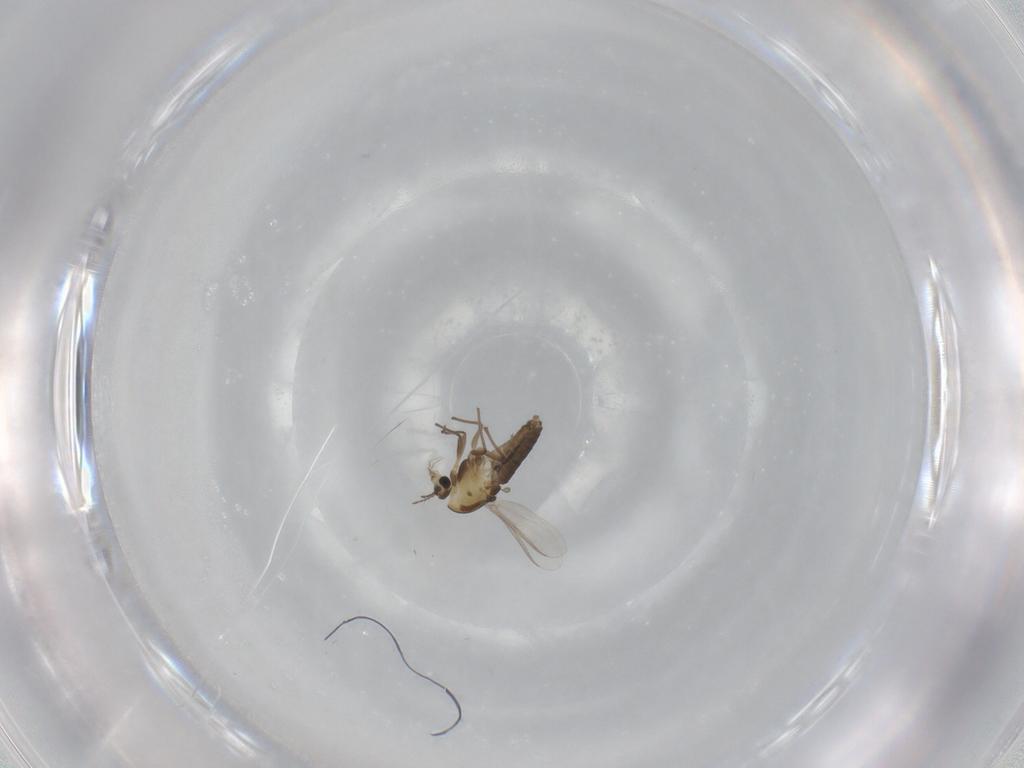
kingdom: Animalia
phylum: Arthropoda
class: Insecta
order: Diptera
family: Chironomidae
